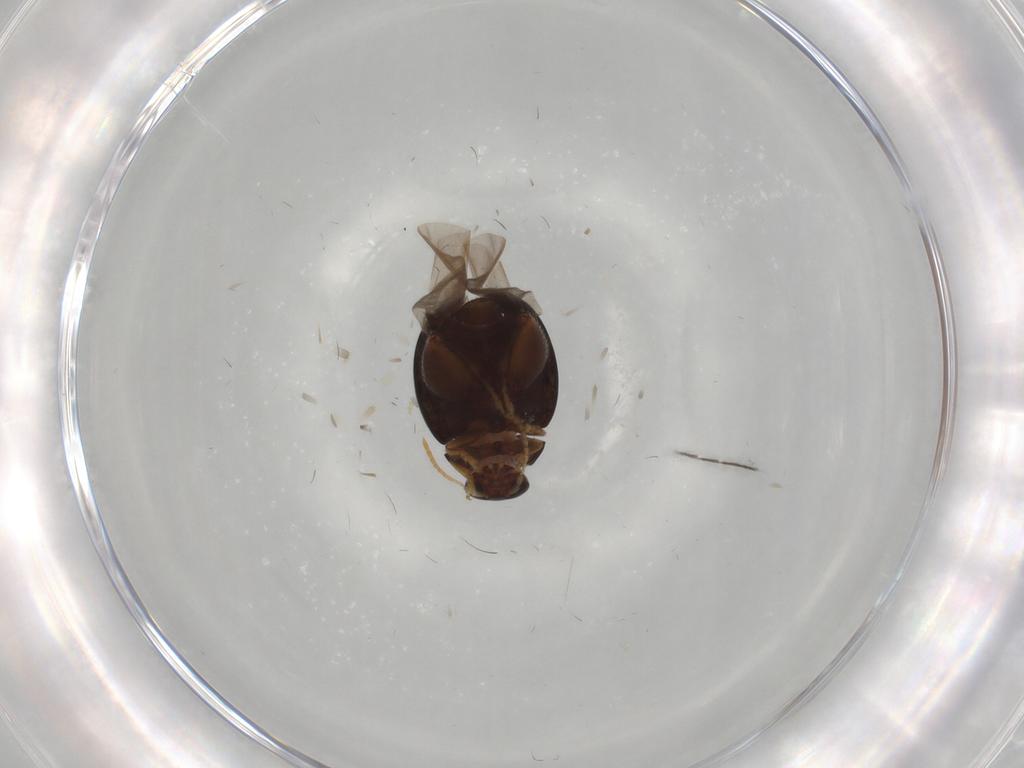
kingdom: Animalia
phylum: Arthropoda
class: Insecta
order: Coleoptera
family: Chrysomelidae
